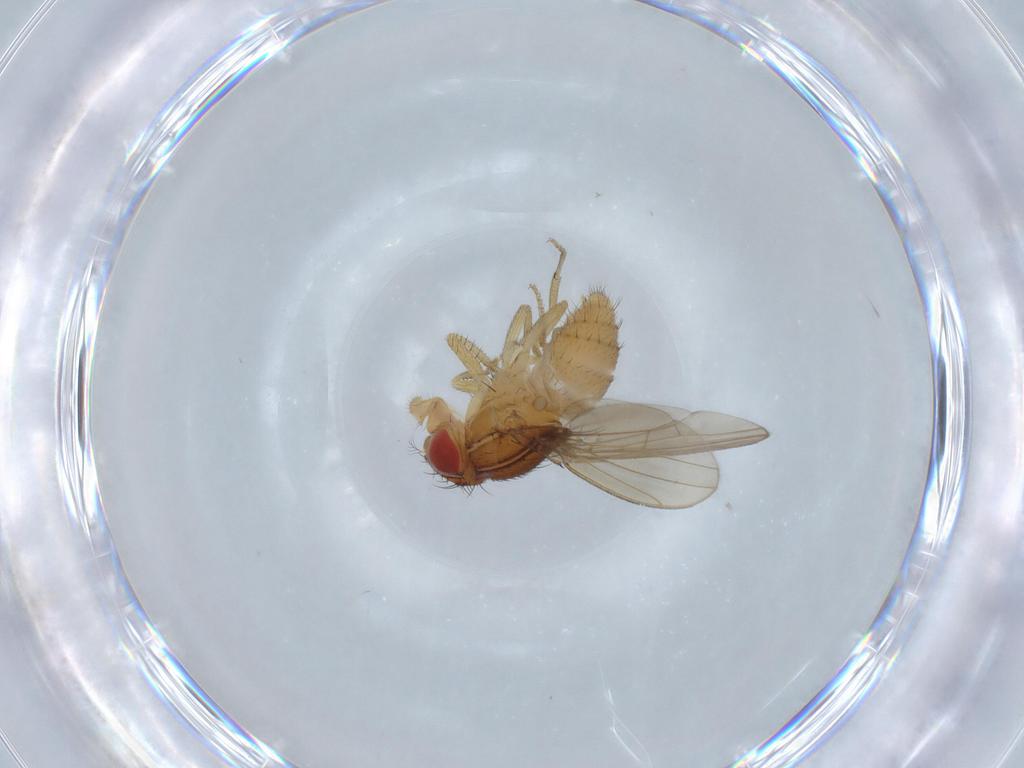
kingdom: Animalia
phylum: Arthropoda
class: Insecta
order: Diptera
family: Drosophilidae
